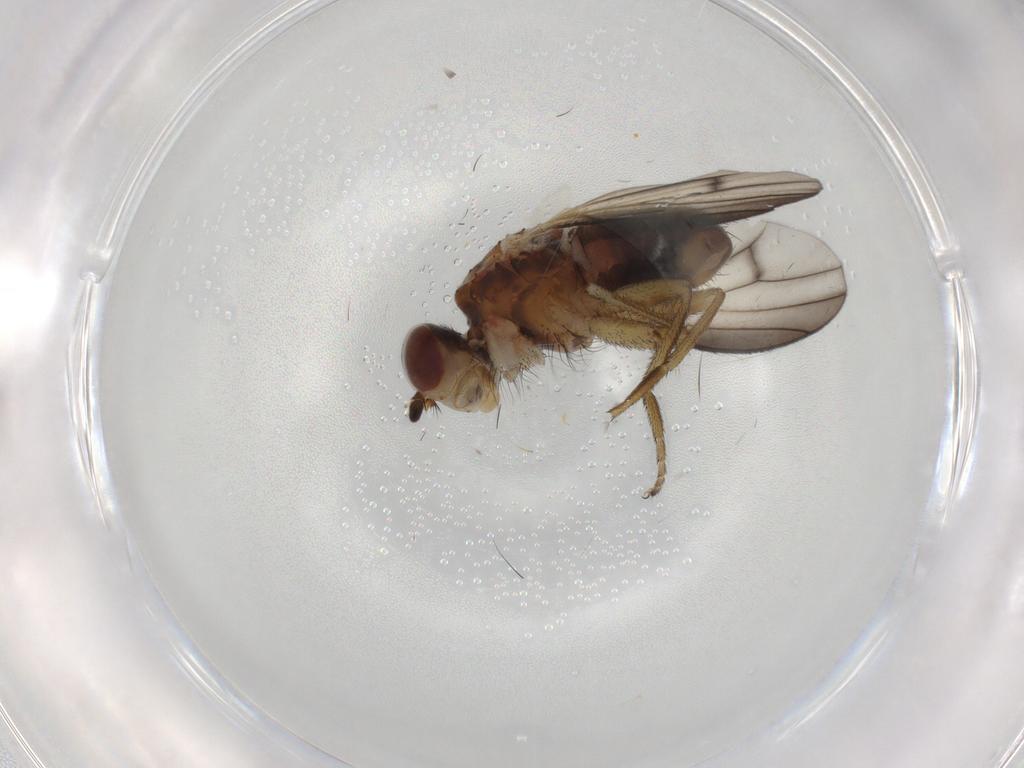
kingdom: Animalia
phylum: Arthropoda
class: Insecta
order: Diptera
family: Heleomyzidae
